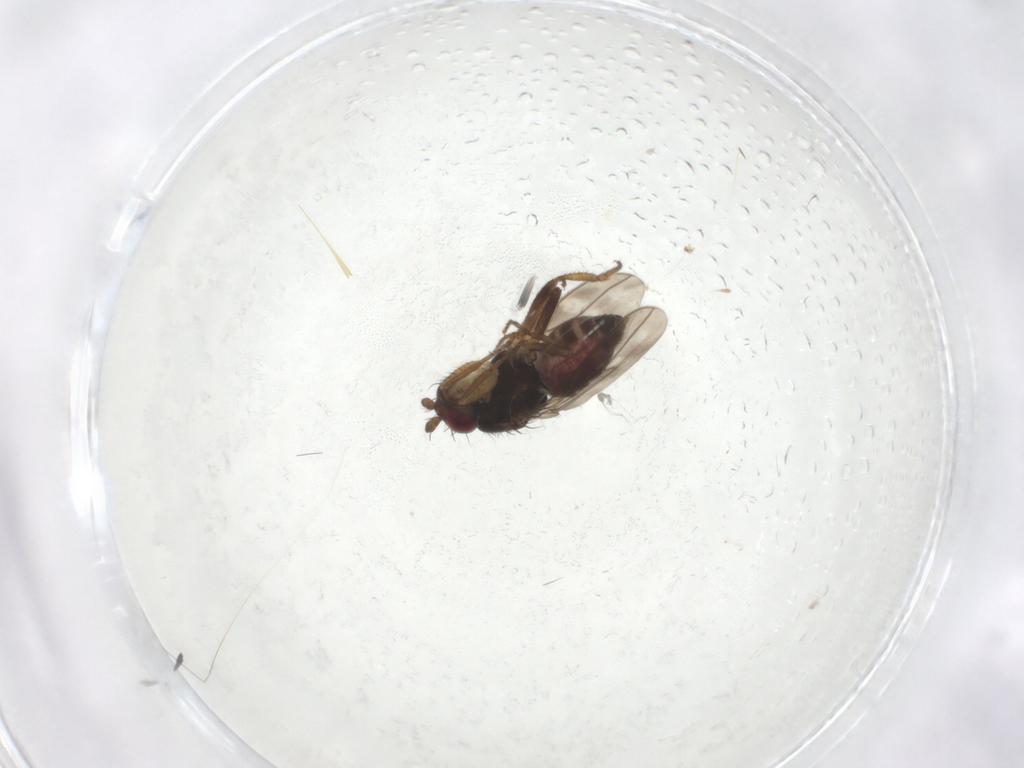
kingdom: Animalia
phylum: Arthropoda
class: Insecta
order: Diptera
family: Sphaeroceridae
